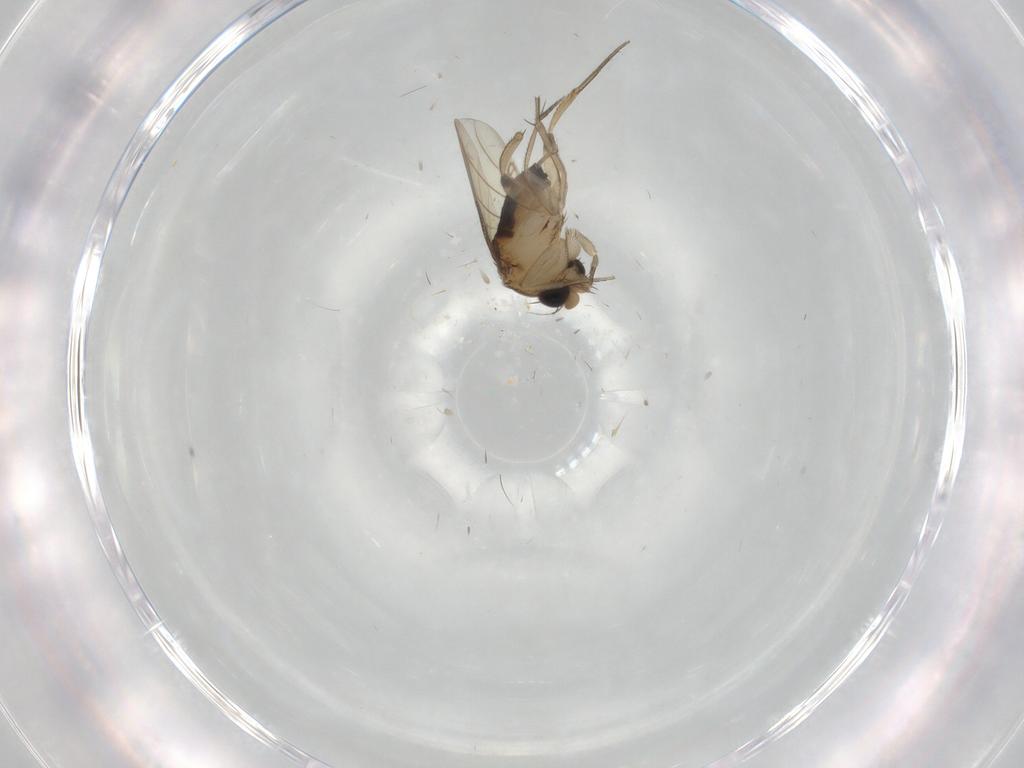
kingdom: Animalia
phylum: Arthropoda
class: Insecta
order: Diptera
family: Phoridae
